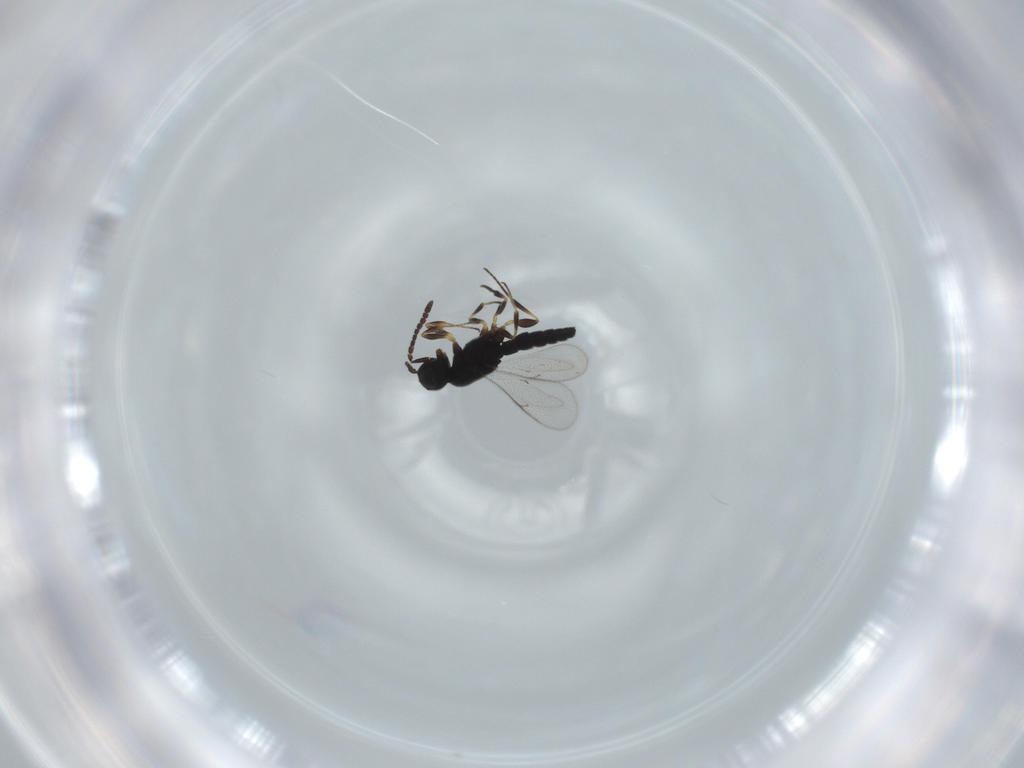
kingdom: Animalia
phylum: Arthropoda
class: Insecta
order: Hymenoptera
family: Scelionidae
